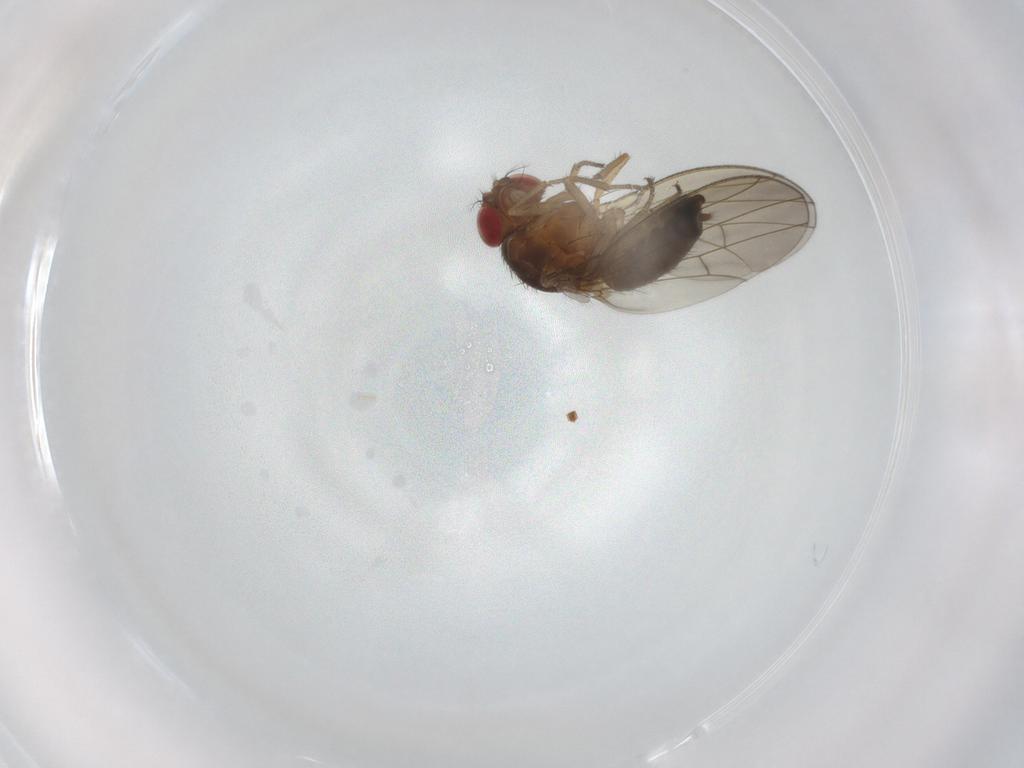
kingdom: Animalia
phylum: Arthropoda
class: Insecta
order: Diptera
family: Drosophilidae
